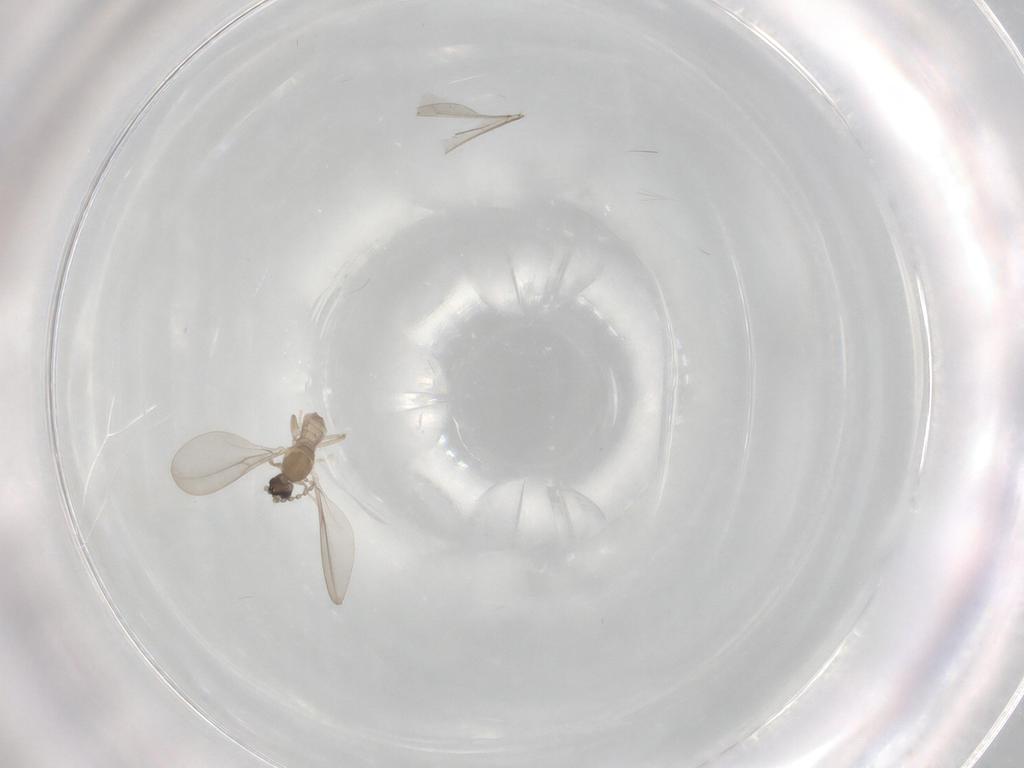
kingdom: Animalia
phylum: Arthropoda
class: Insecta
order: Diptera
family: Cecidomyiidae
